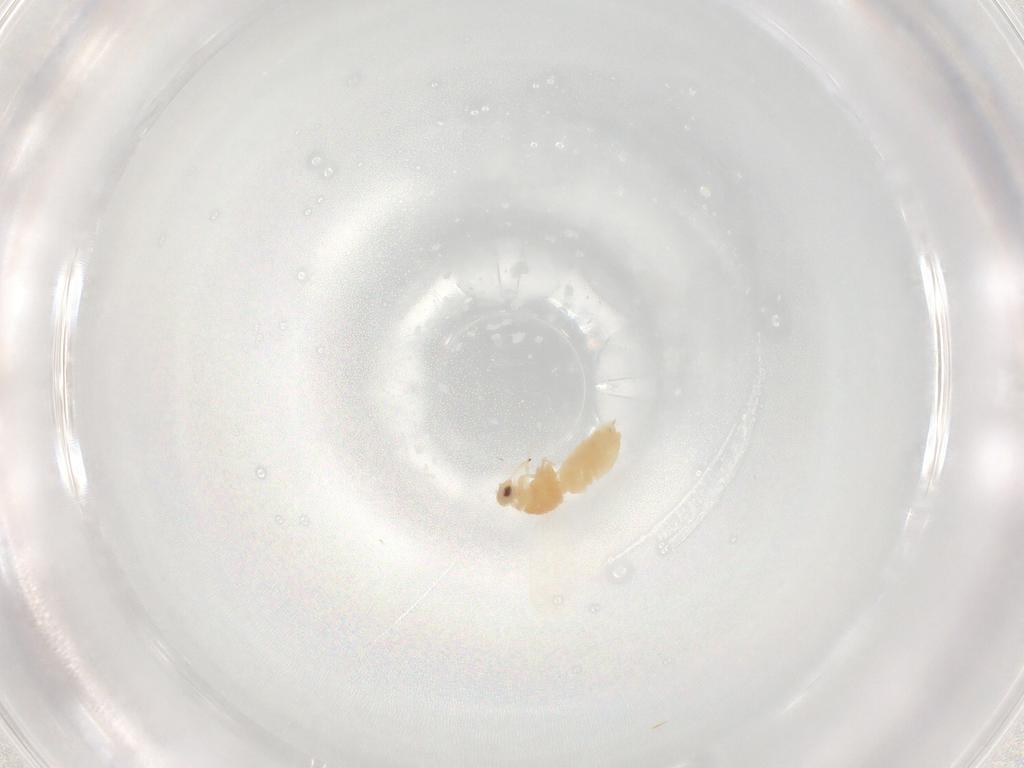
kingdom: Animalia
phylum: Arthropoda
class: Insecta
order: Hemiptera
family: Aleyrodidae
